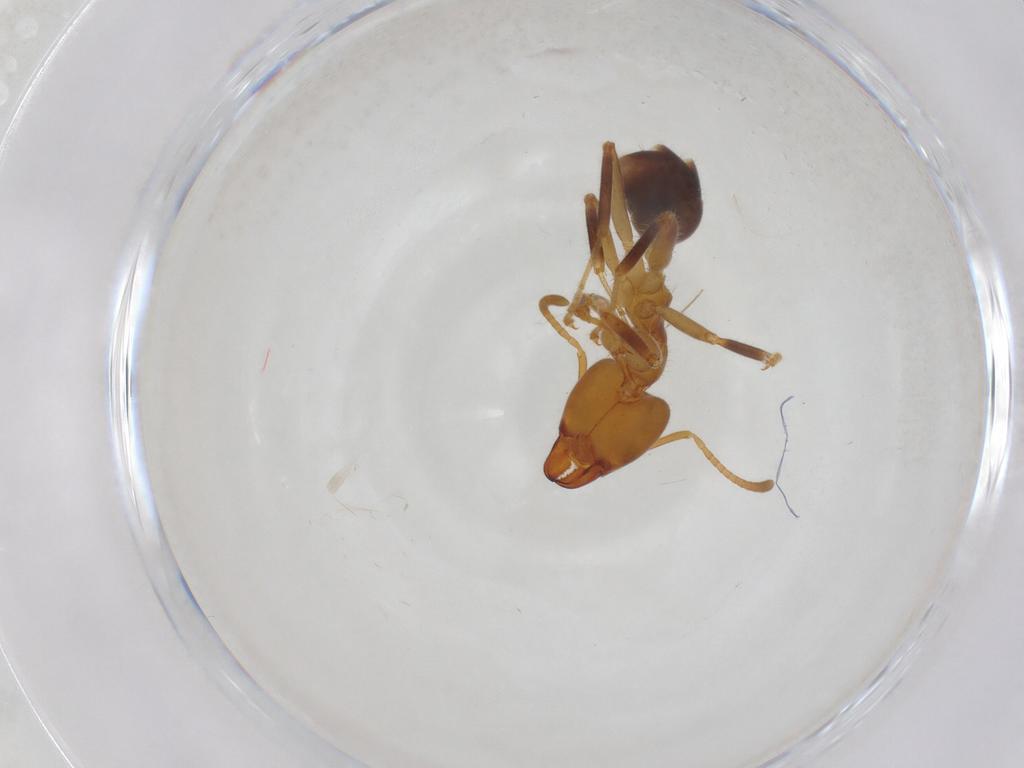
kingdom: Animalia
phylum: Arthropoda
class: Insecta
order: Hymenoptera
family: Formicidae
